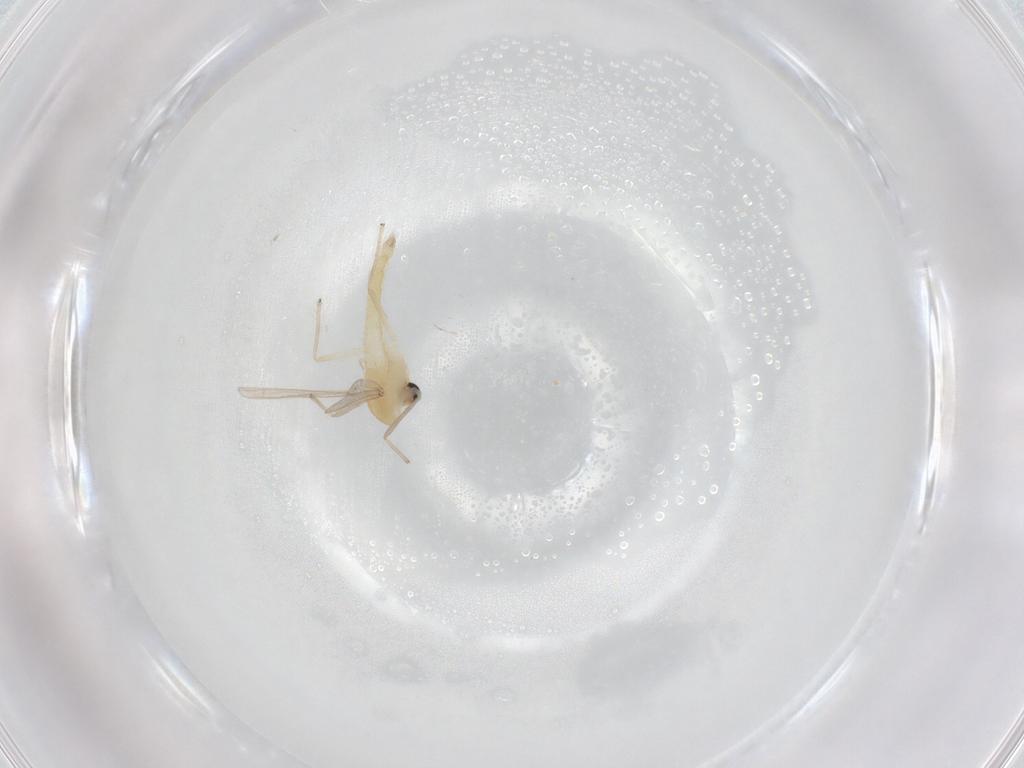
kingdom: Animalia
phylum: Arthropoda
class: Insecta
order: Diptera
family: Chironomidae
